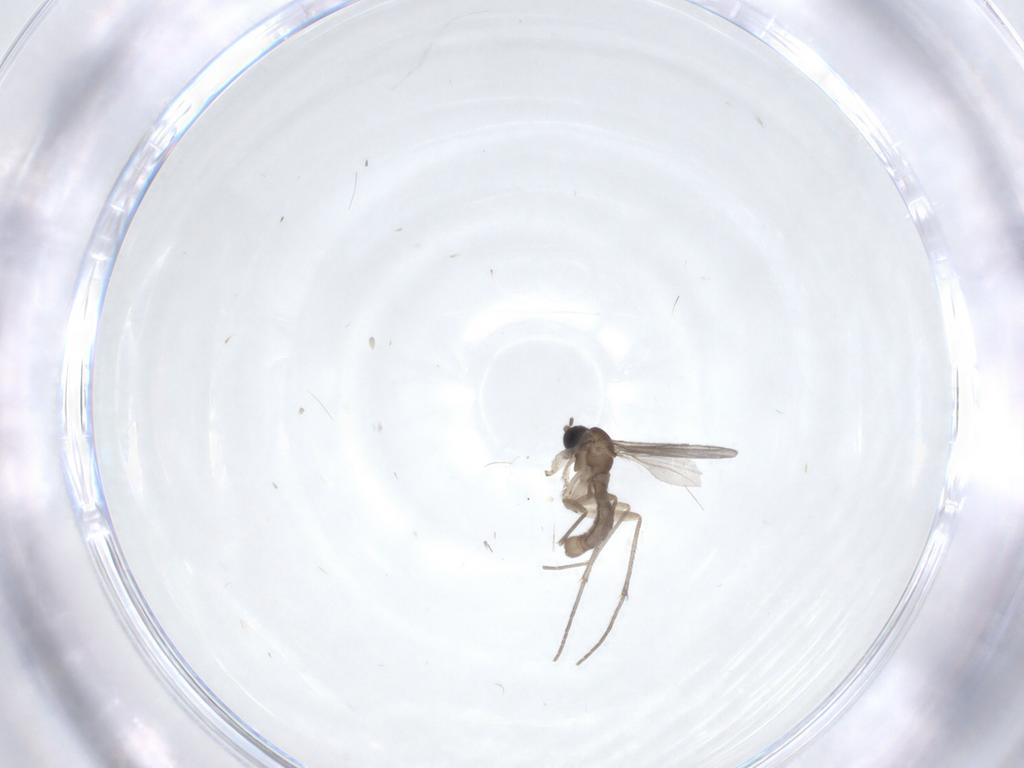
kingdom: Animalia
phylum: Arthropoda
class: Insecta
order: Diptera
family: Sciaridae
